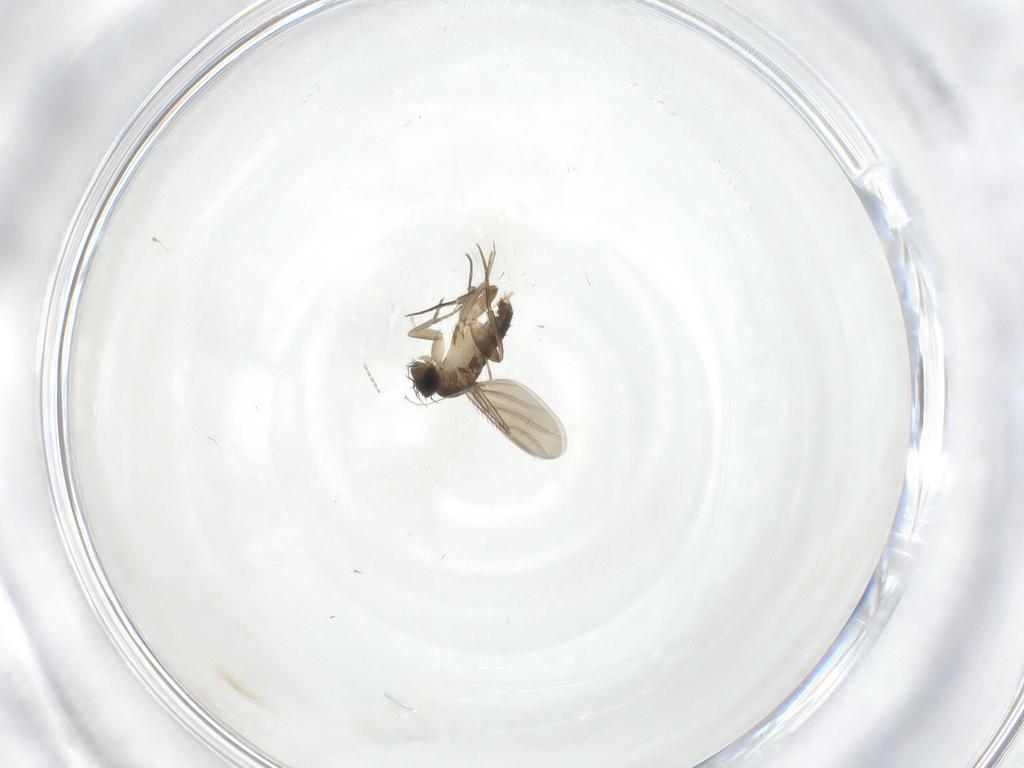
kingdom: Animalia
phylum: Arthropoda
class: Insecta
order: Diptera
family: Phoridae
